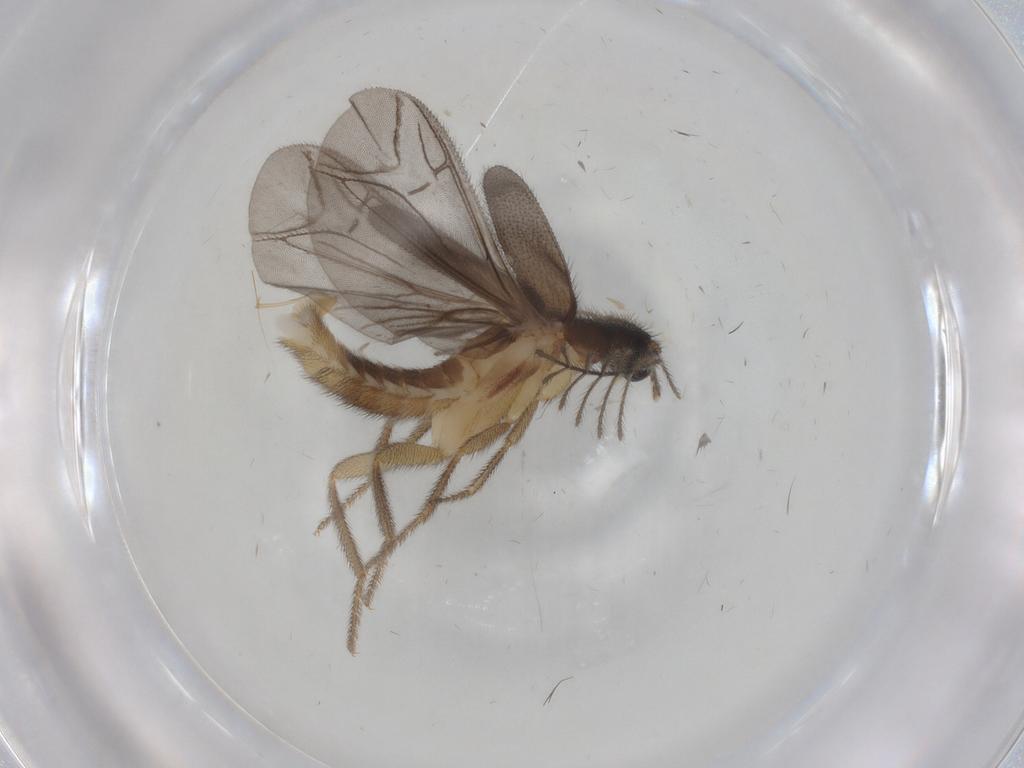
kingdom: Animalia
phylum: Arthropoda
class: Insecta
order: Coleoptera
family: Phengodidae
